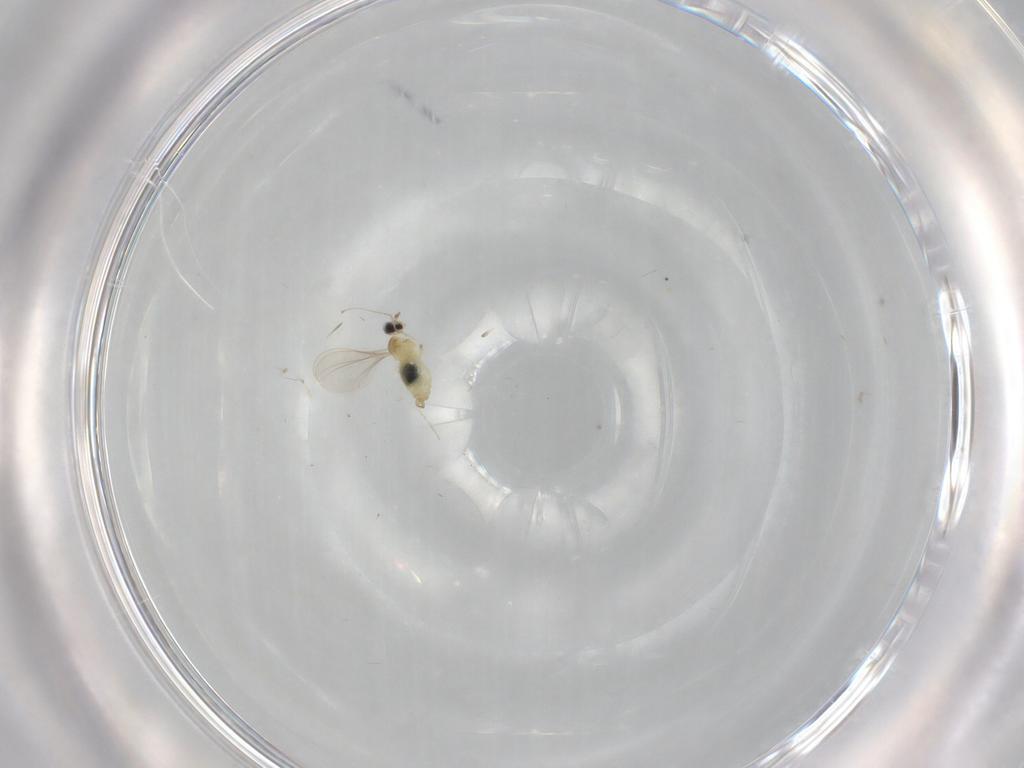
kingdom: Animalia
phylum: Arthropoda
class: Insecta
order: Diptera
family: Cecidomyiidae
